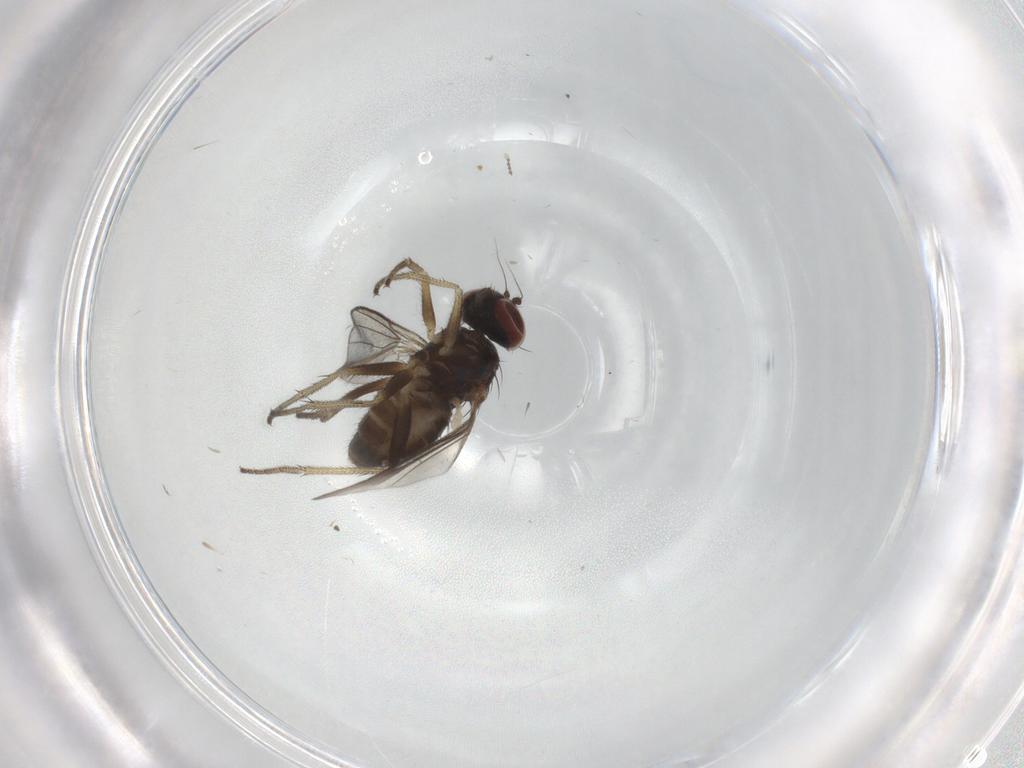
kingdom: Animalia
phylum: Arthropoda
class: Insecta
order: Diptera
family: Dolichopodidae
